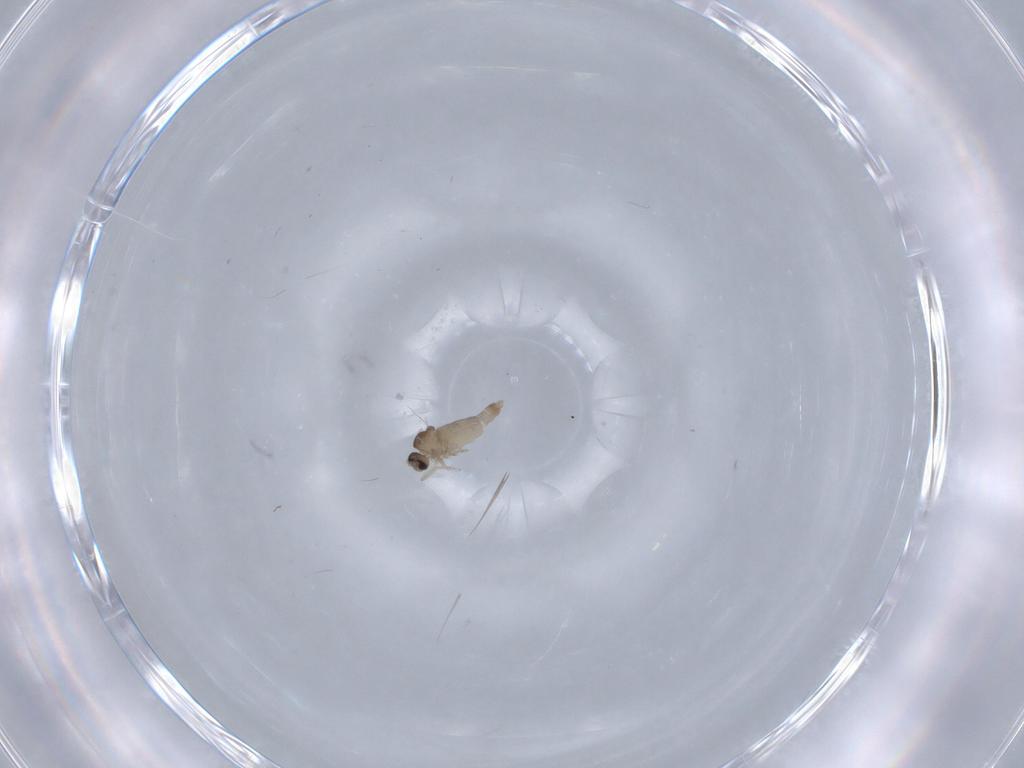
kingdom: Animalia
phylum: Arthropoda
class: Insecta
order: Diptera
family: Cecidomyiidae
